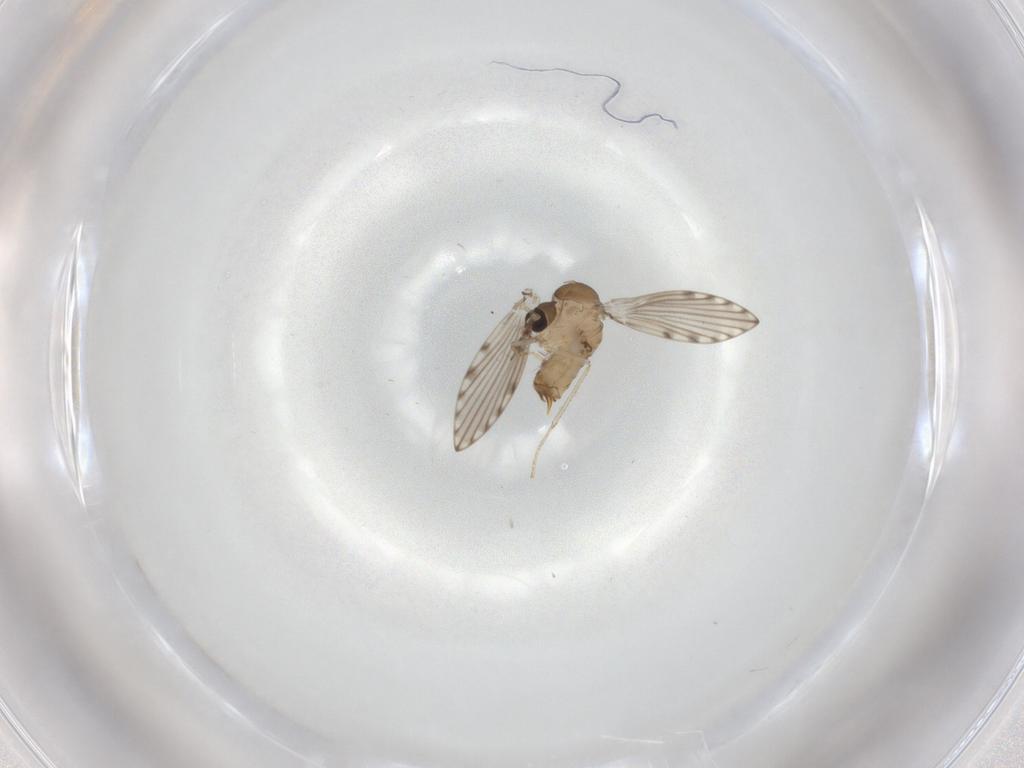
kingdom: Animalia
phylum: Arthropoda
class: Insecta
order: Diptera
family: Psychodidae
